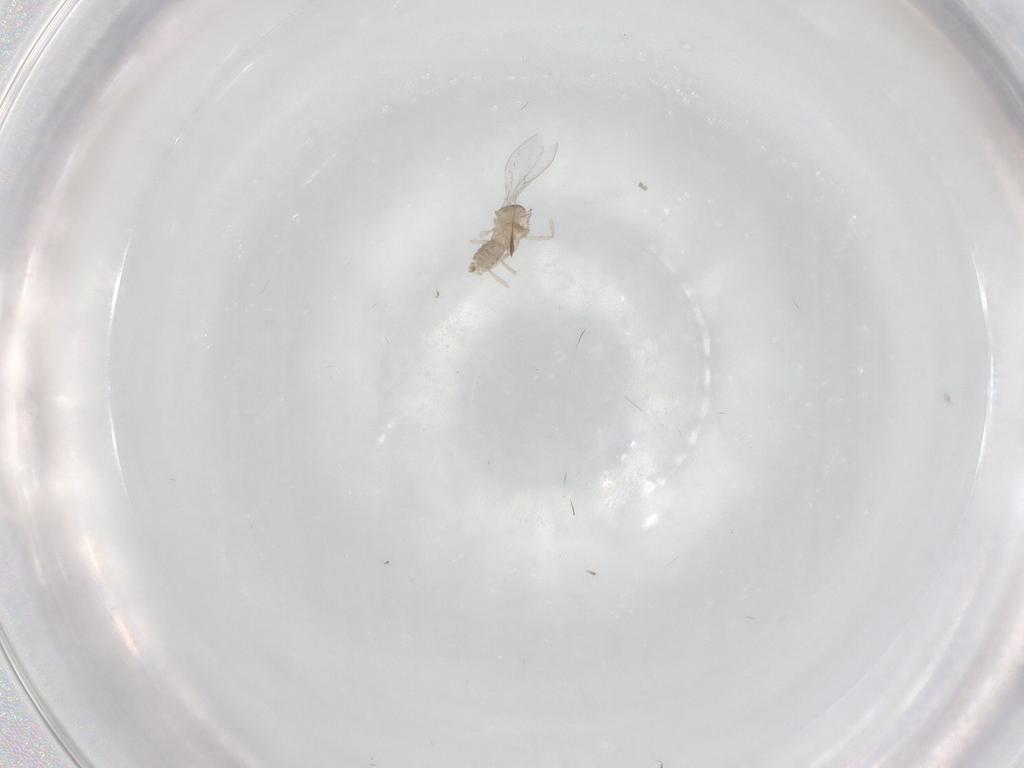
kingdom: Animalia
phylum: Arthropoda
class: Insecta
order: Diptera
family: Cecidomyiidae
